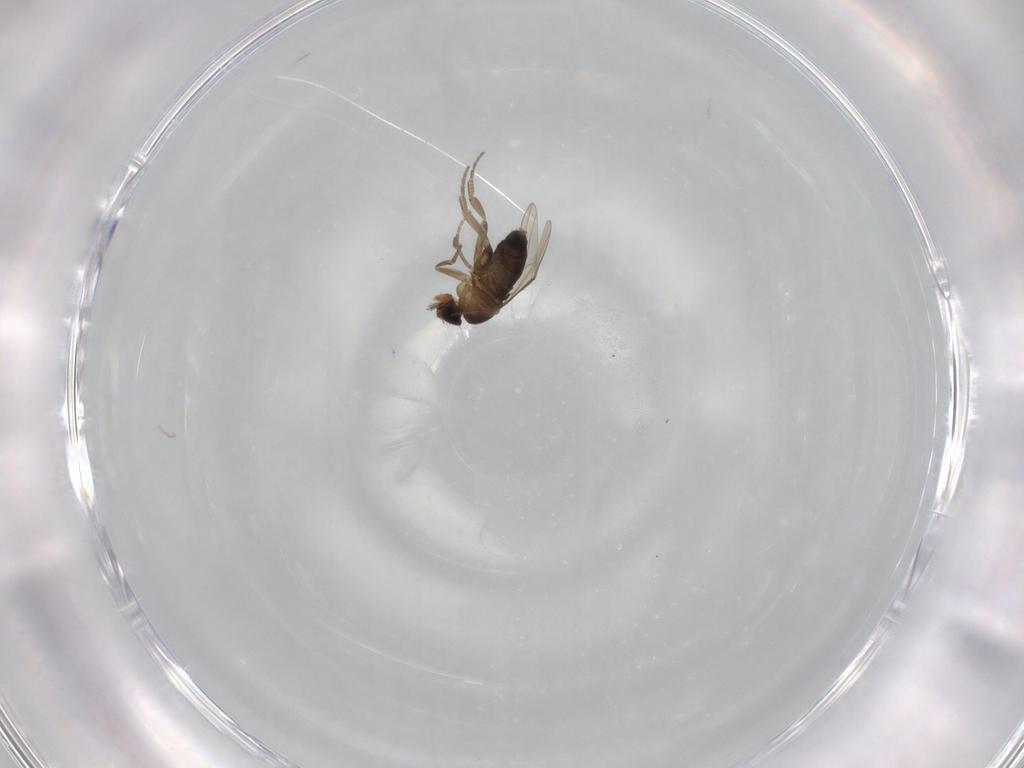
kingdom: Animalia
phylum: Arthropoda
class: Insecta
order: Diptera
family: Phoridae
